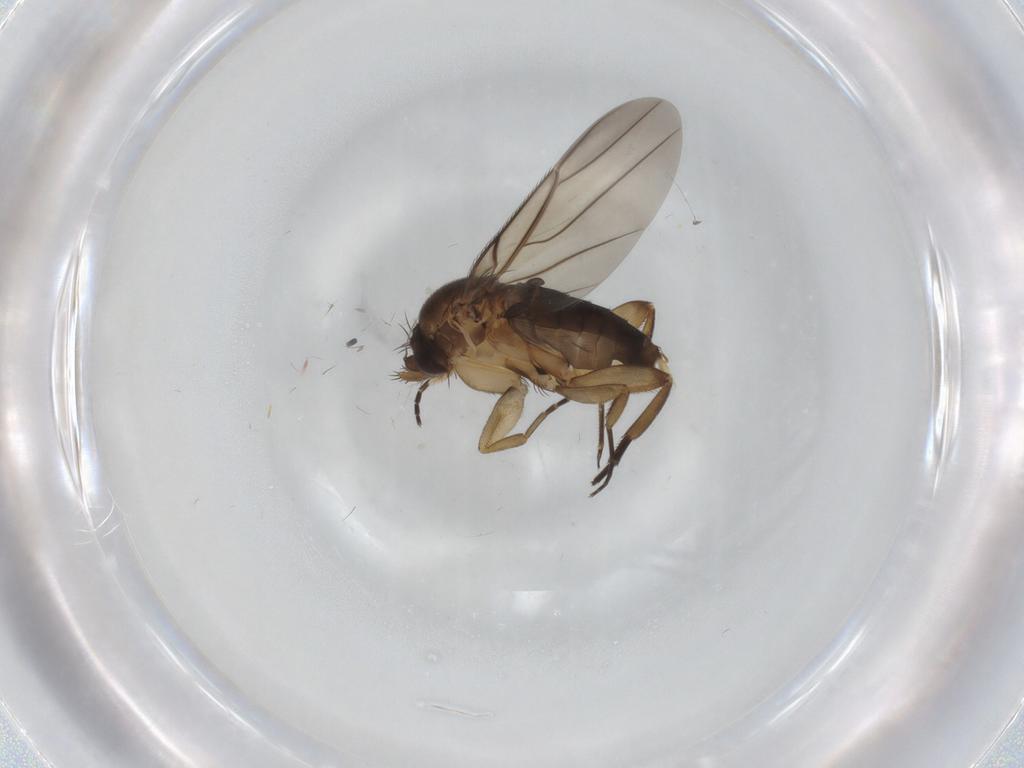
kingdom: Animalia
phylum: Arthropoda
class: Insecta
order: Diptera
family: Phoridae
